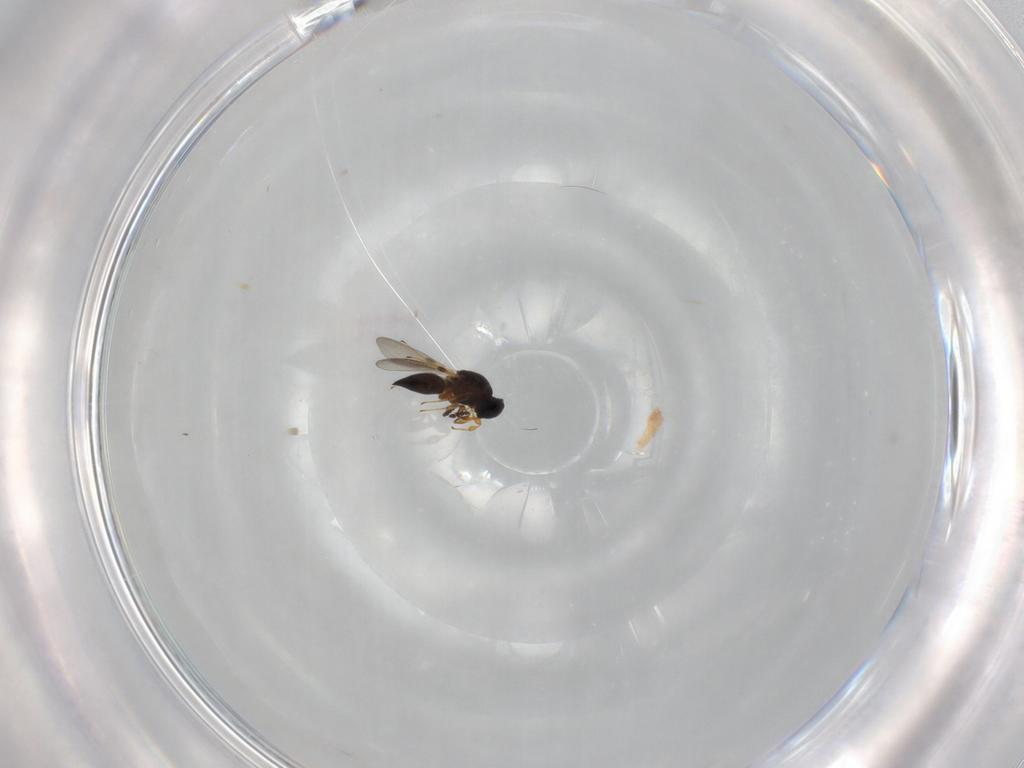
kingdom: Animalia
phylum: Arthropoda
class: Insecta
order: Hymenoptera
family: Platygastridae
